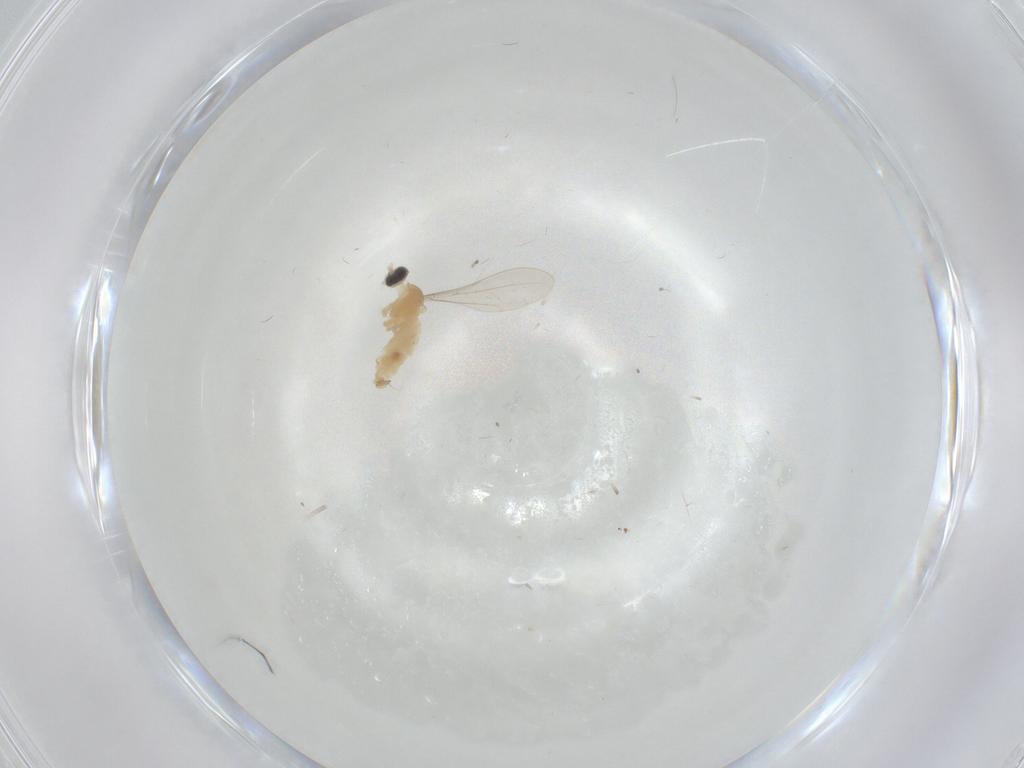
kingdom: Animalia
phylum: Arthropoda
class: Insecta
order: Diptera
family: Cecidomyiidae
